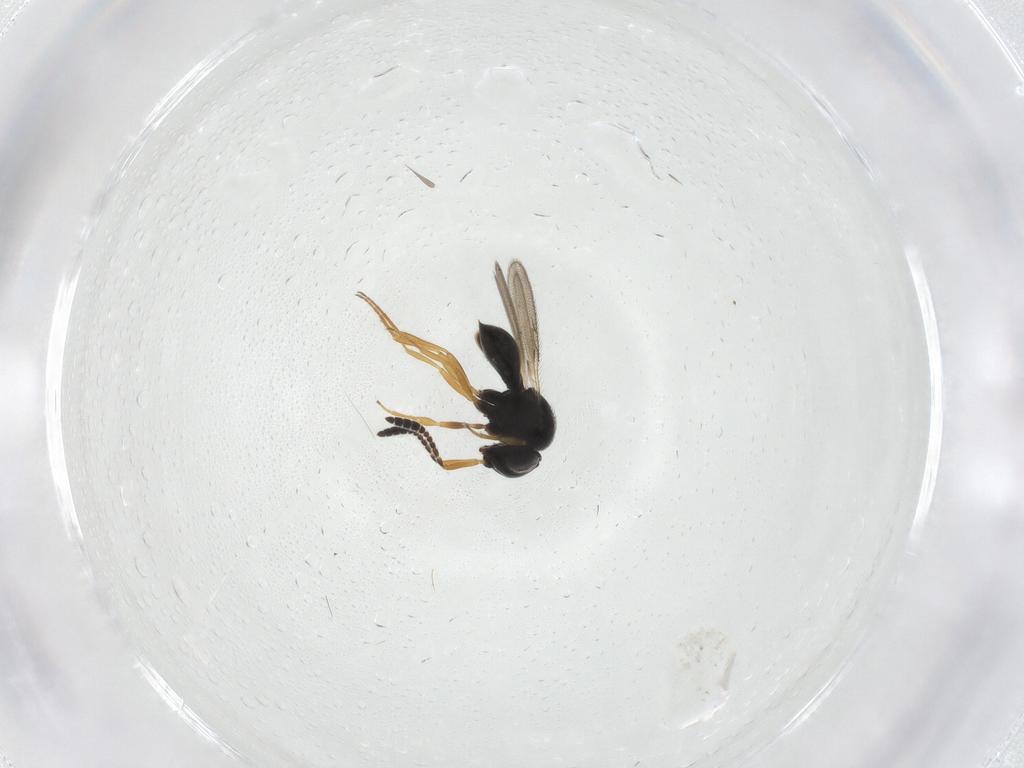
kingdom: Animalia
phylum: Arthropoda
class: Insecta
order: Hymenoptera
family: Scelionidae
